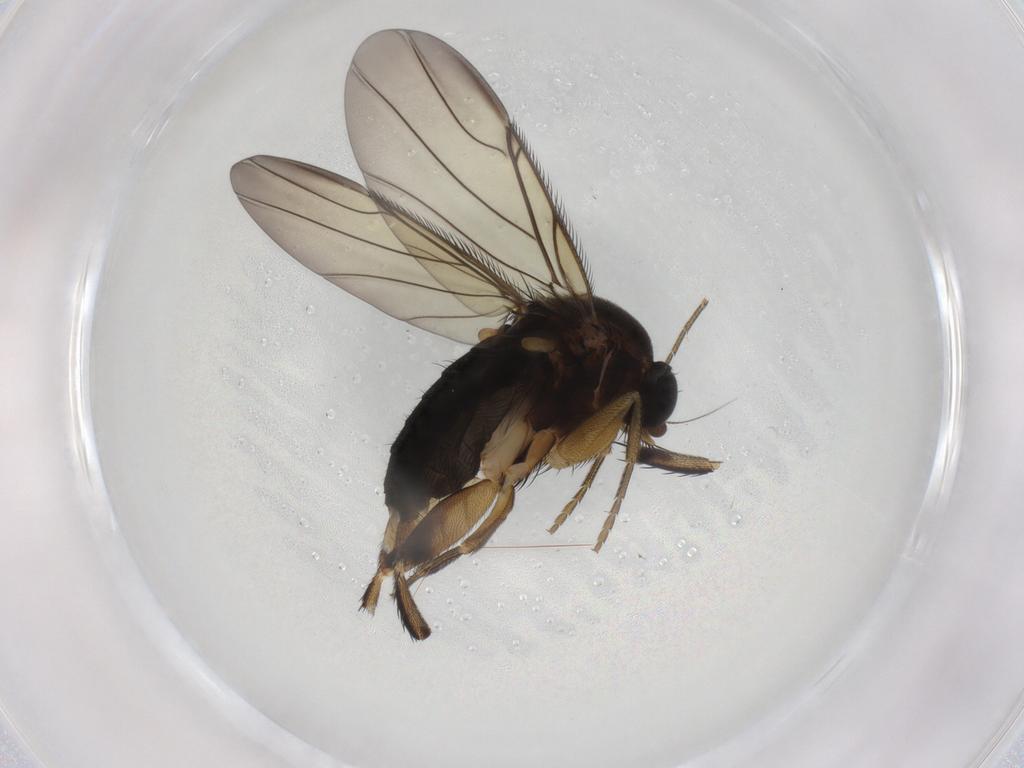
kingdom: Animalia
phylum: Arthropoda
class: Insecta
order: Diptera
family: Phoridae
